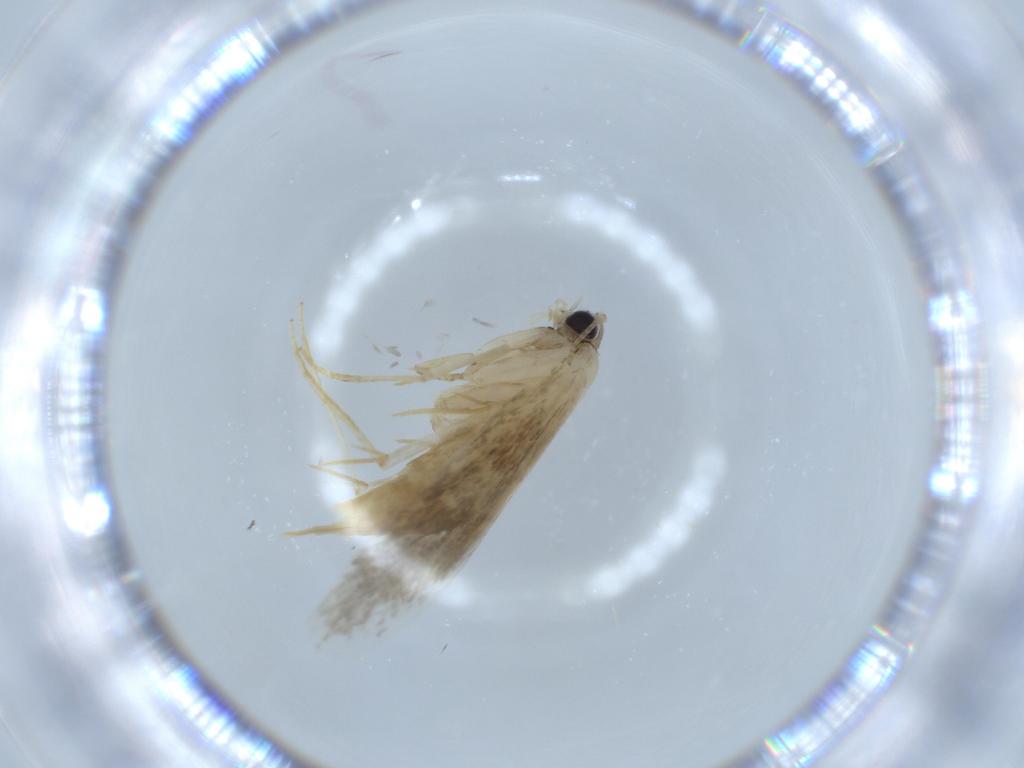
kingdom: Animalia
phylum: Arthropoda
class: Insecta
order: Lepidoptera
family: Tineidae
